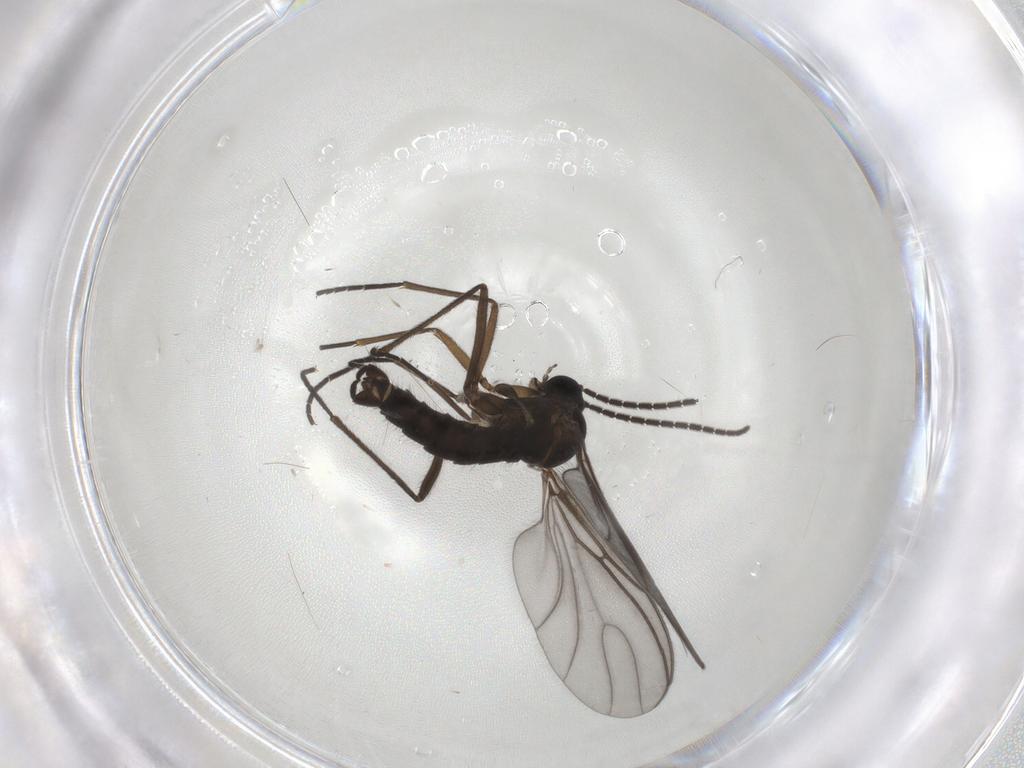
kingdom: Animalia
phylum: Arthropoda
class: Insecta
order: Diptera
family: Sciaridae
